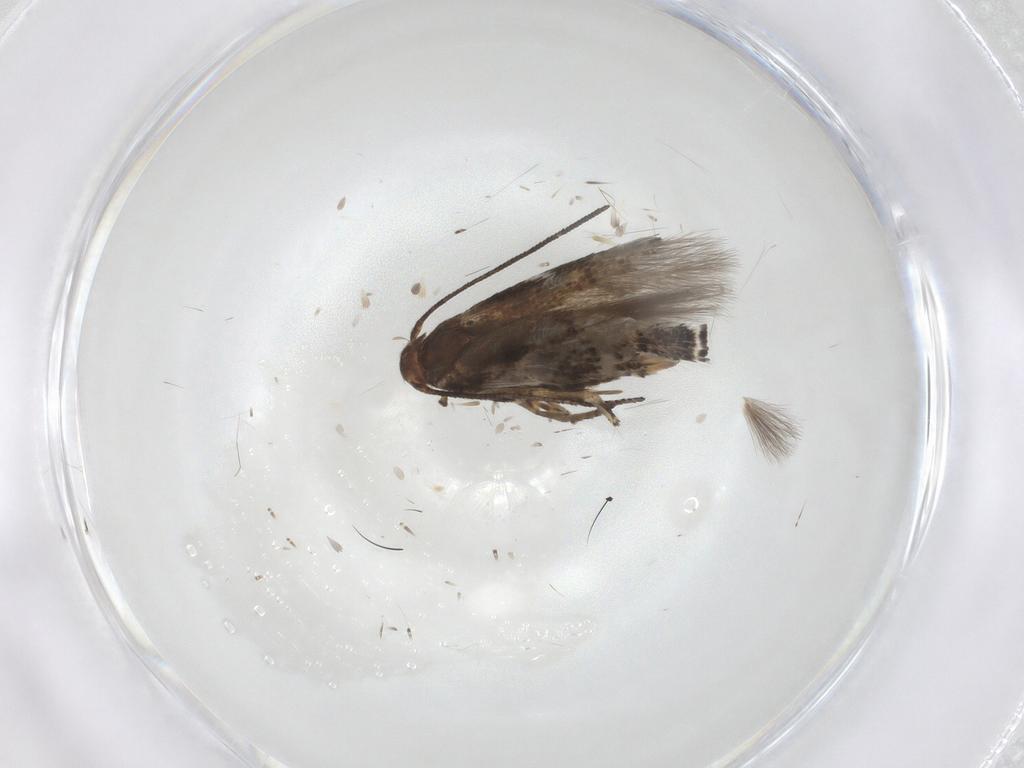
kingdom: Animalia
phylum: Arthropoda
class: Insecta
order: Lepidoptera
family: Momphidae
